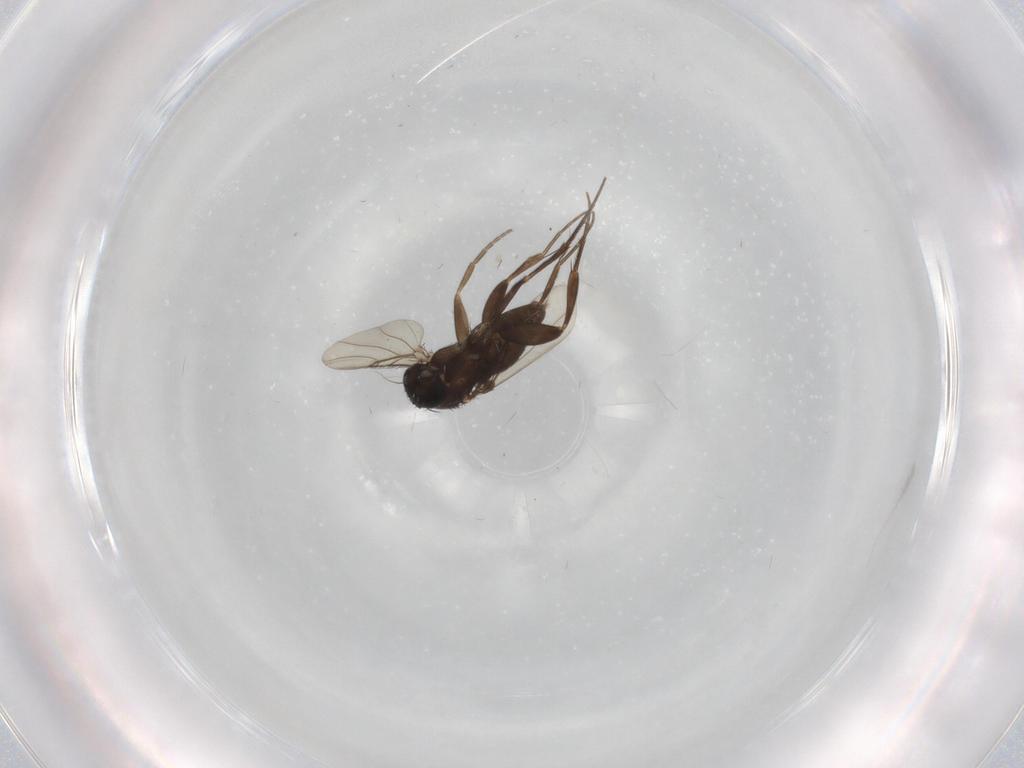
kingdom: Animalia
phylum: Arthropoda
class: Insecta
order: Diptera
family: Phoridae
